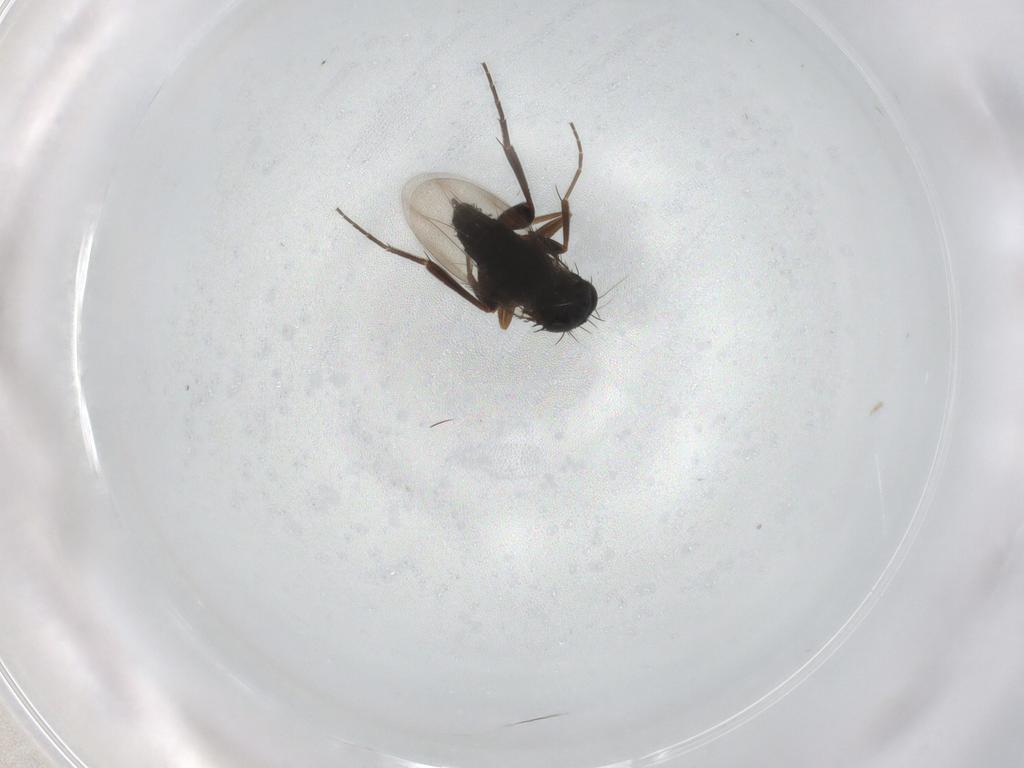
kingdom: Animalia
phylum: Arthropoda
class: Insecta
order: Diptera
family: Phoridae
